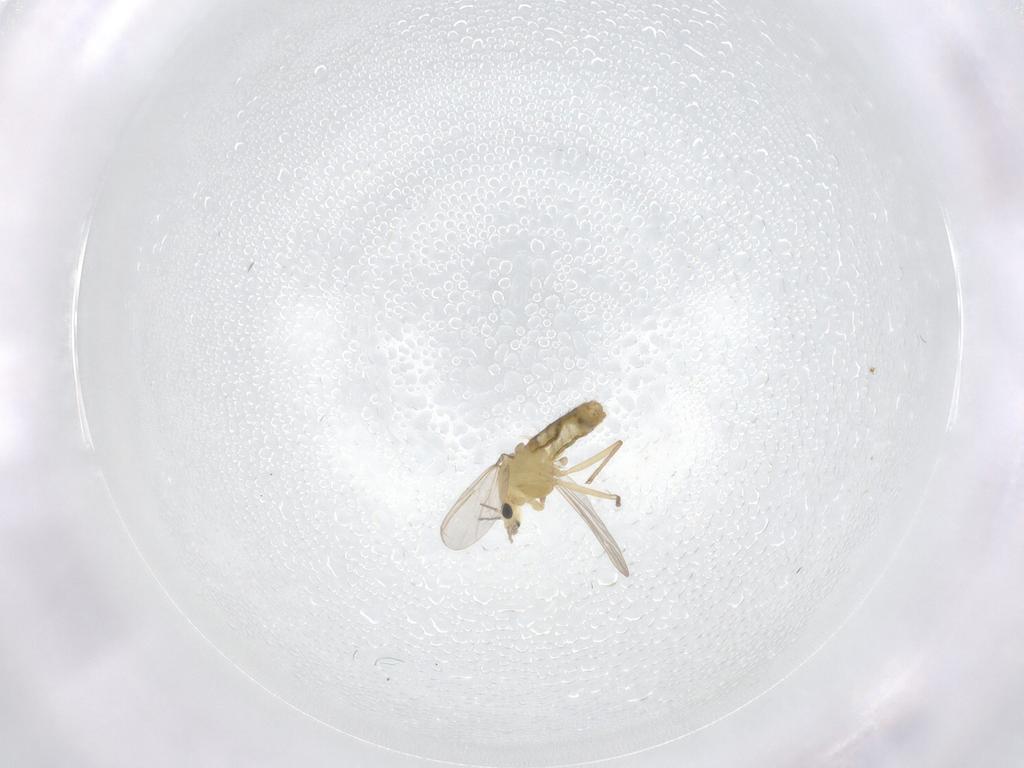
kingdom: Animalia
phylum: Arthropoda
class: Insecta
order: Diptera
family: Chironomidae
